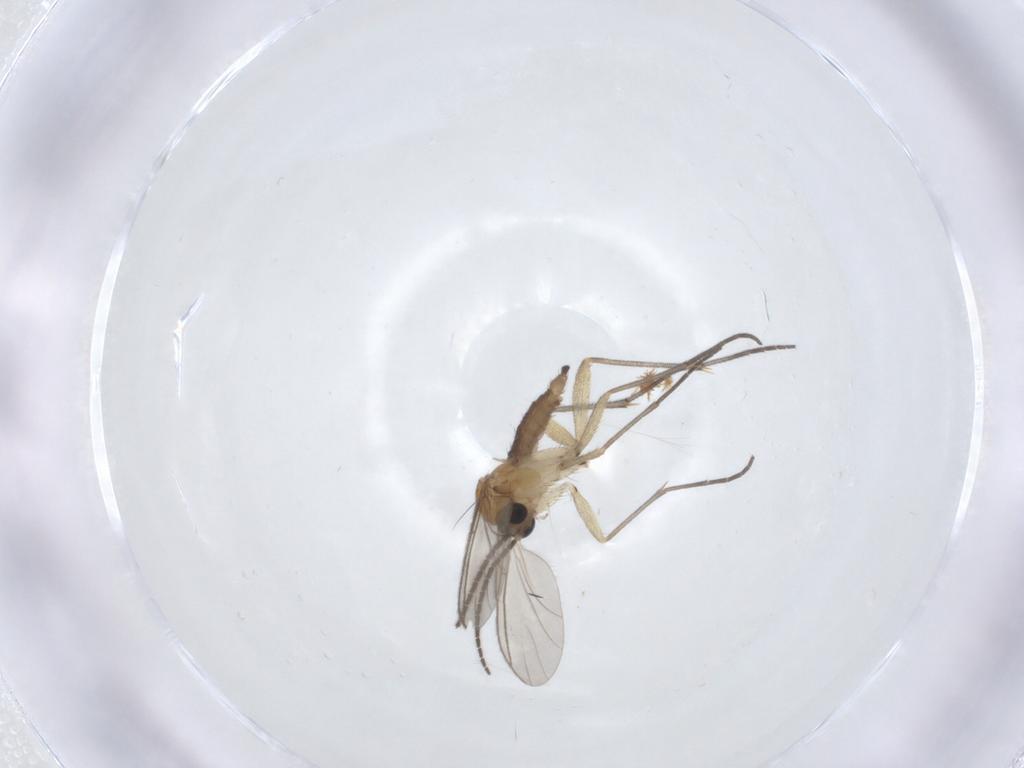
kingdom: Animalia
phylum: Arthropoda
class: Insecta
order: Diptera
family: Sciaridae
